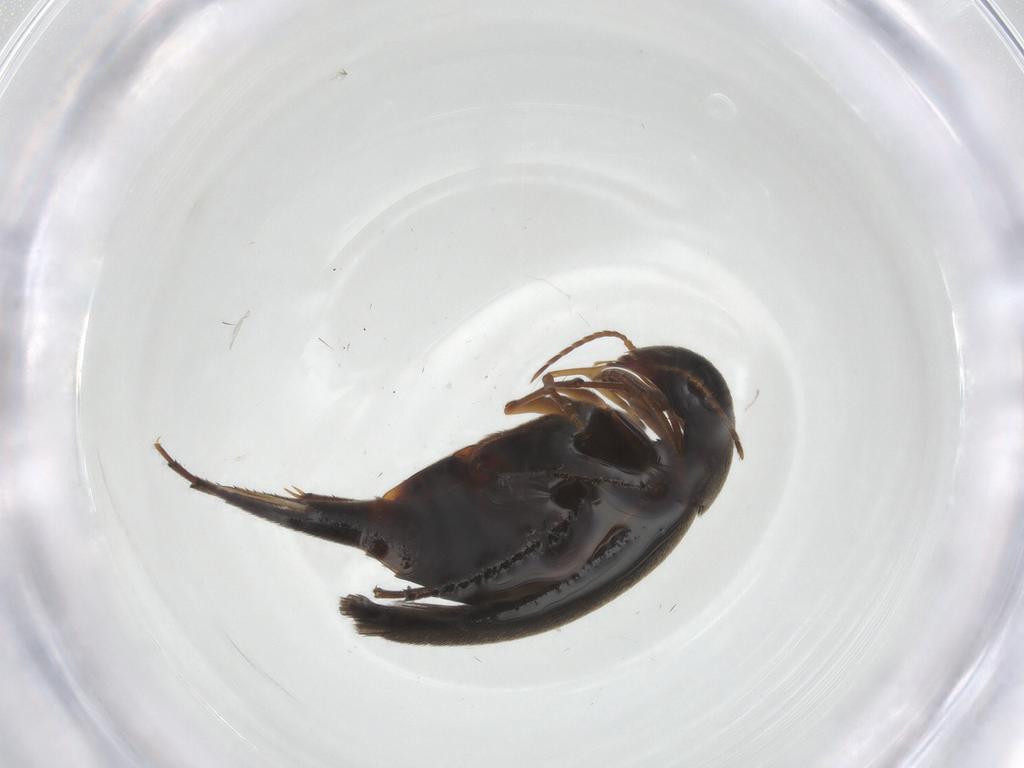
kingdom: Animalia
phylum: Arthropoda
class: Insecta
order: Coleoptera
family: Mordellidae
